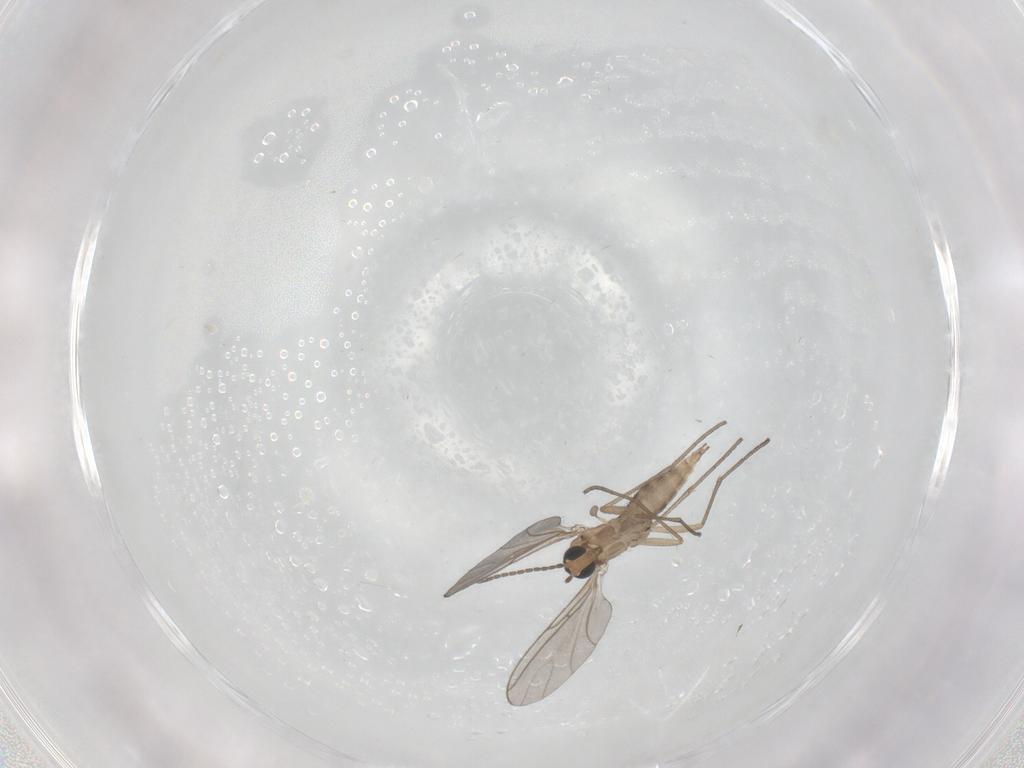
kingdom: Animalia
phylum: Arthropoda
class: Insecta
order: Diptera
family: Sciaridae
